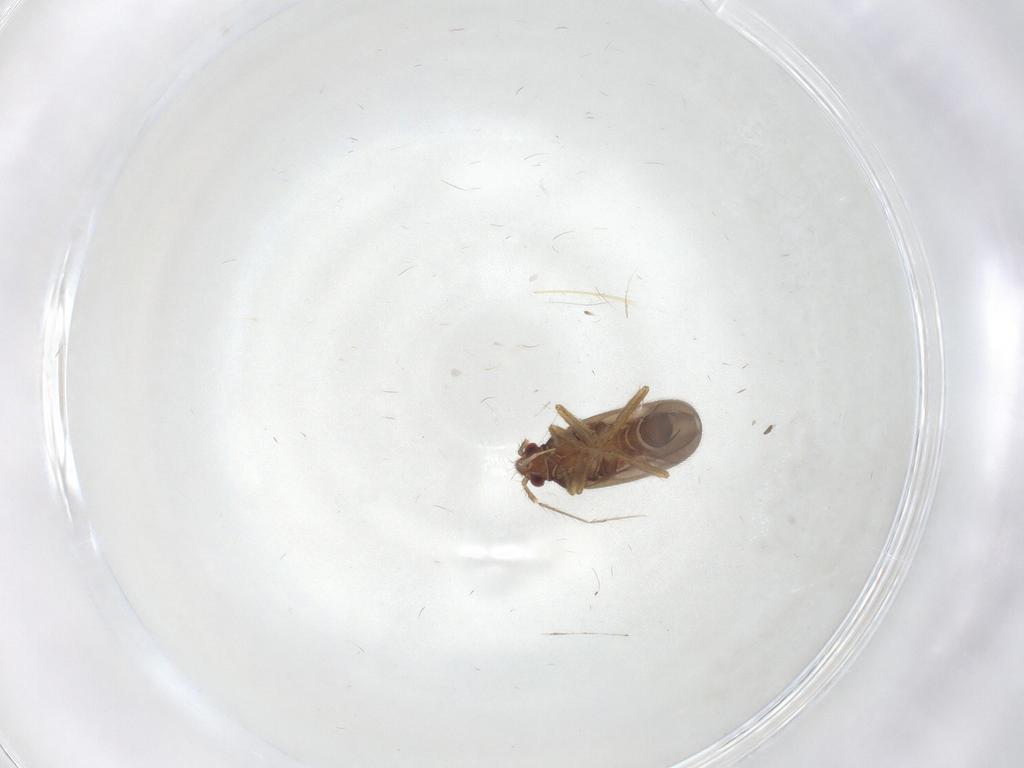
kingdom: Animalia
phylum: Arthropoda
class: Insecta
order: Hemiptera
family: Ceratocombidae
